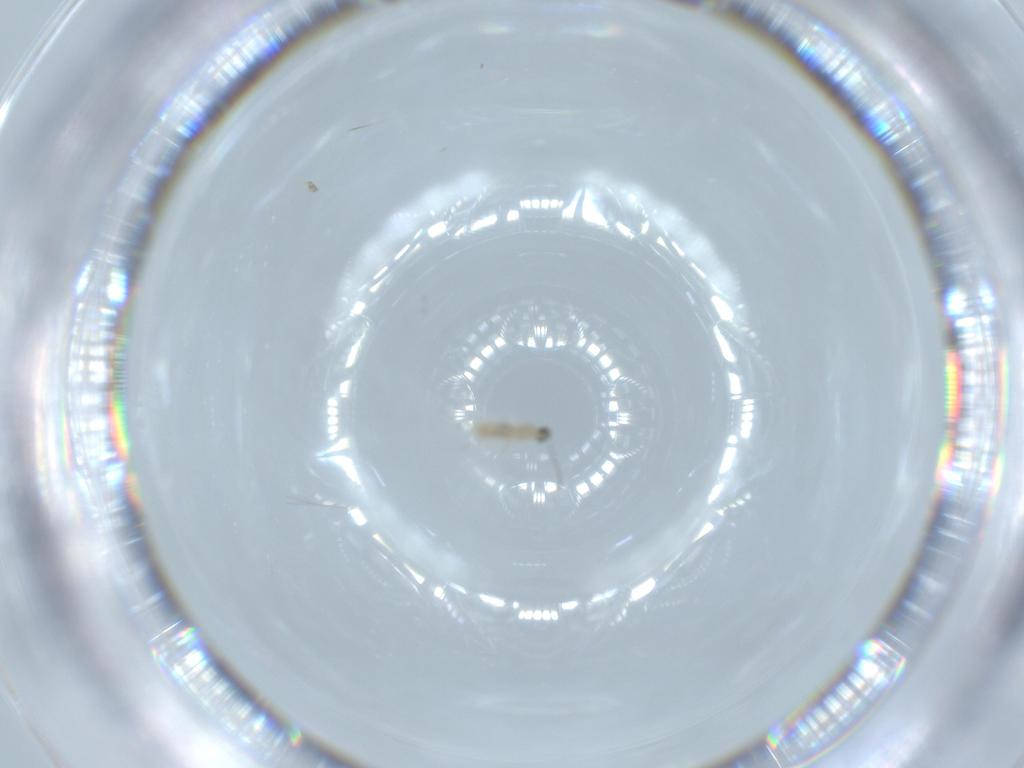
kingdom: Animalia
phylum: Arthropoda
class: Insecta
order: Diptera
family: Cecidomyiidae
